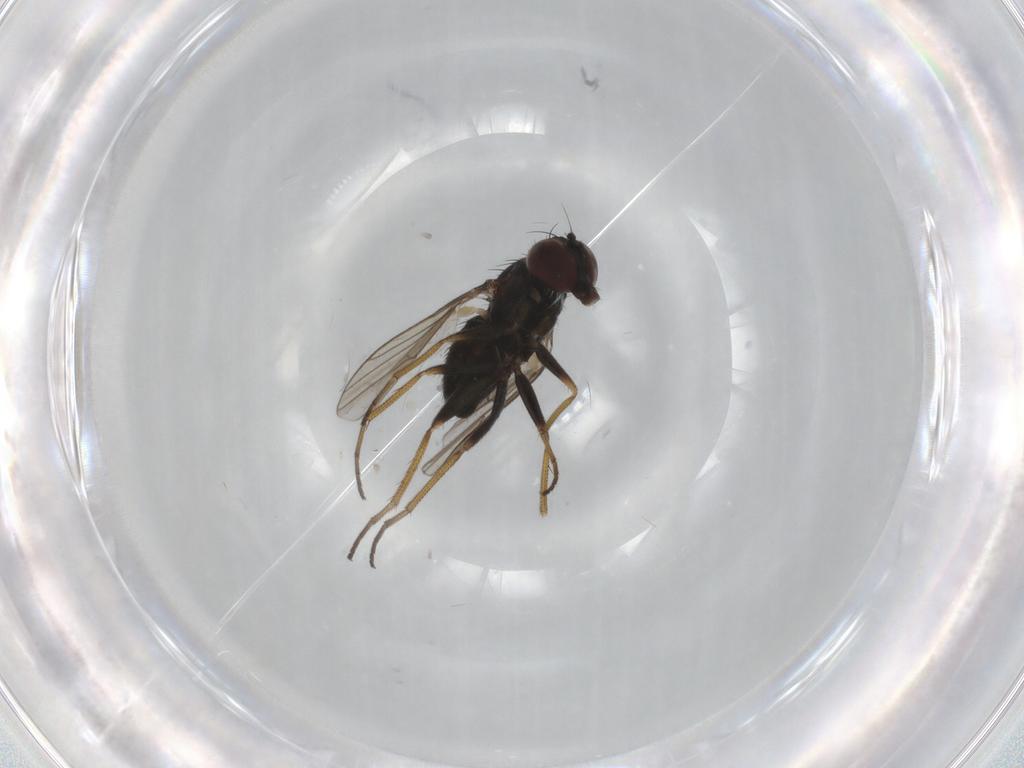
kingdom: Animalia
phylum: Arthropoda
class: Insecta
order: Diptera
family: Dolichopodidae
